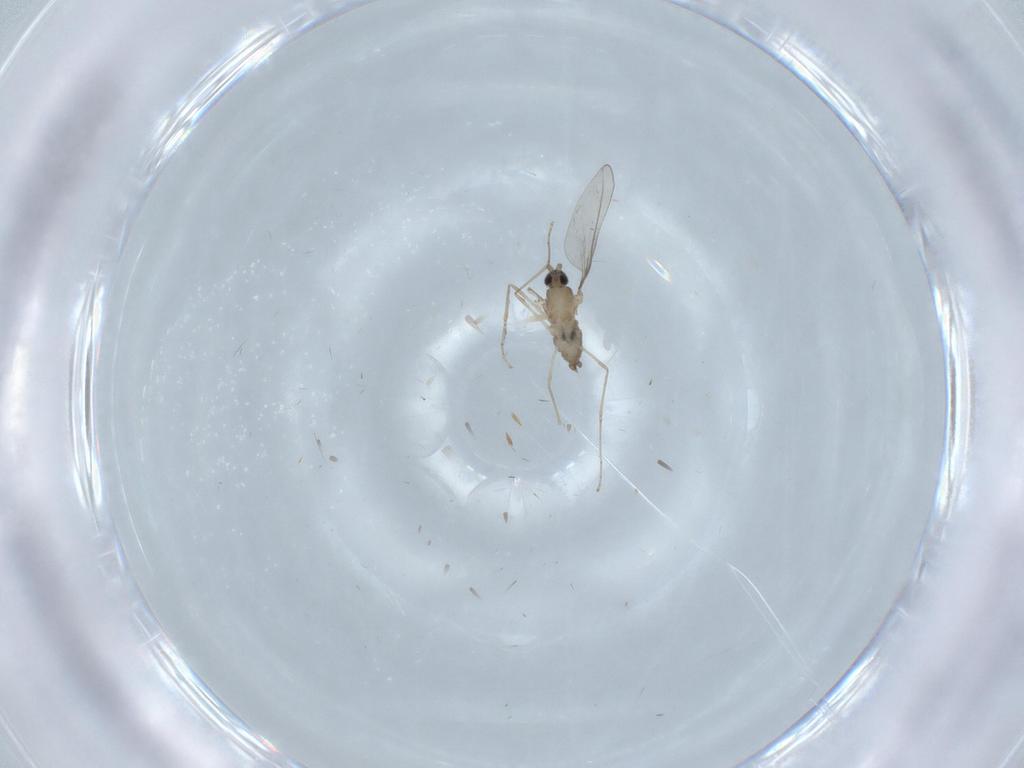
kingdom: Animalia
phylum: Arthropoda
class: Insecta
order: Diptera
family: Cecidomyiidae
